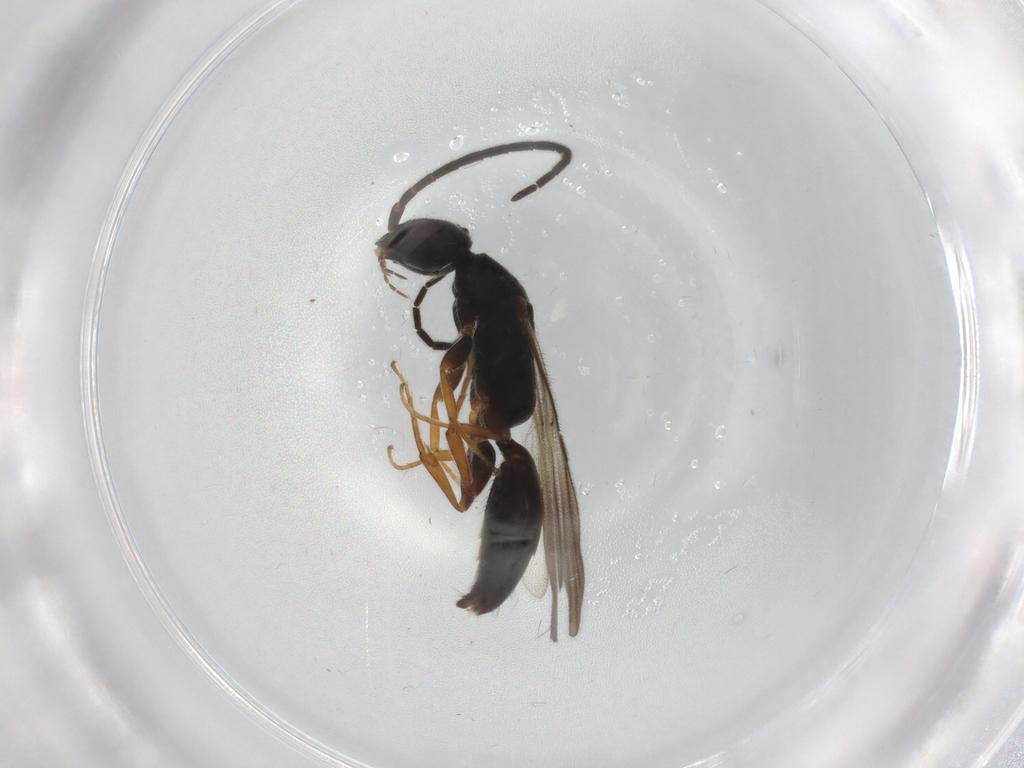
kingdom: Animalia
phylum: Arthropoda
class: Insecta
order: Hymenoptera
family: Bethylidae
